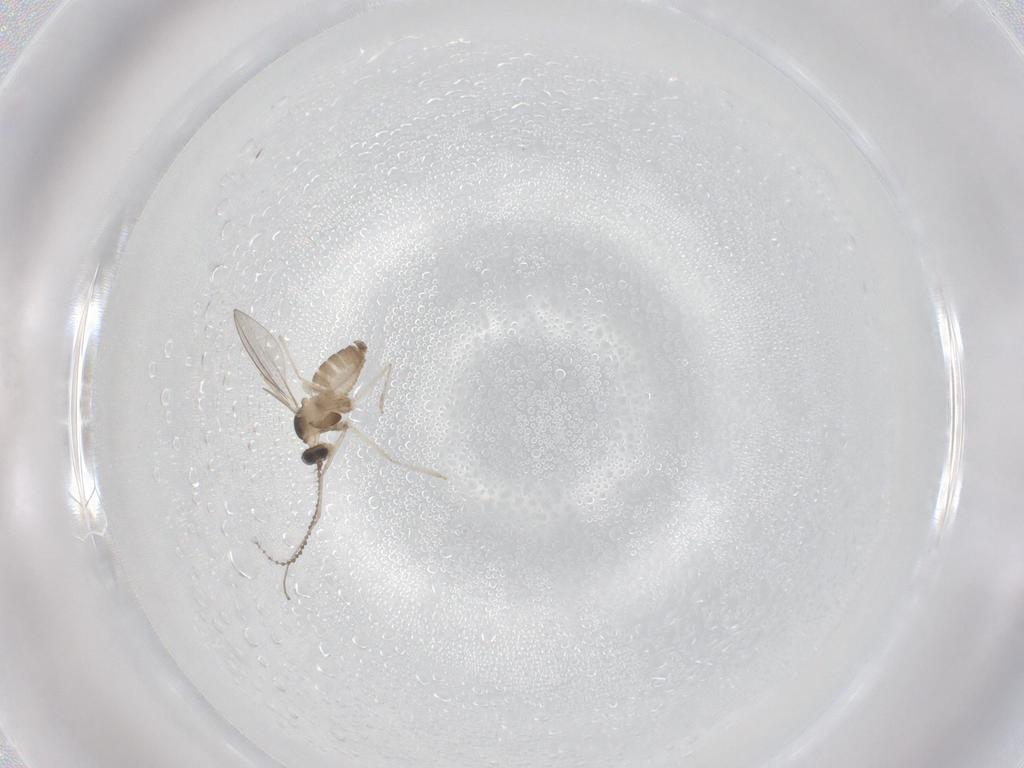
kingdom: Animalia
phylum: Arthropoda
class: Insecta
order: Diptera
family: Cecidomyiidae
